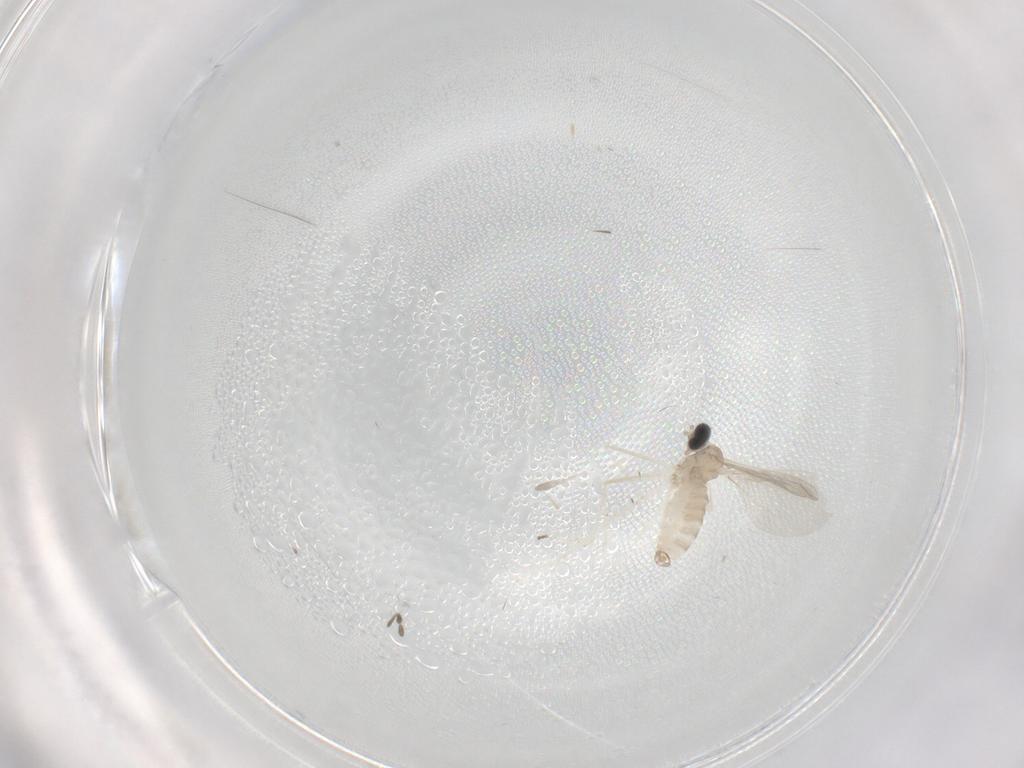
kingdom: Animalia
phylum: Arthropoda
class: Insecta
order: Diptera
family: Cecidomyiidae
